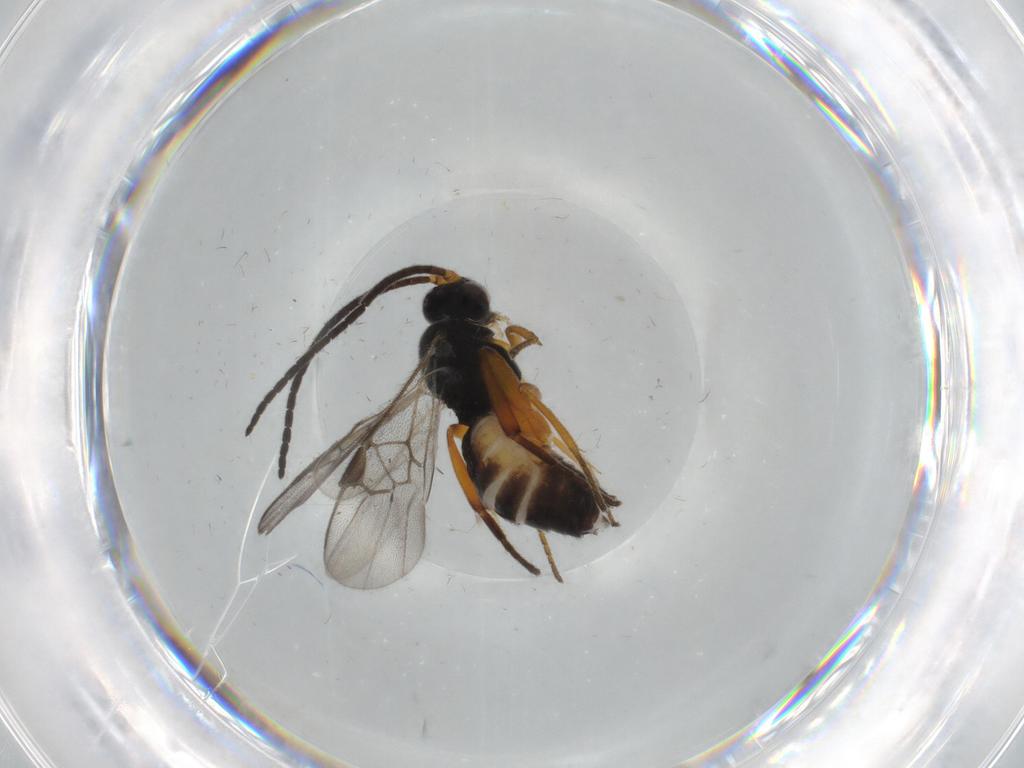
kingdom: Animalia
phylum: Arthropoda
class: Insecta
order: Hymenoptera
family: Braconidae
